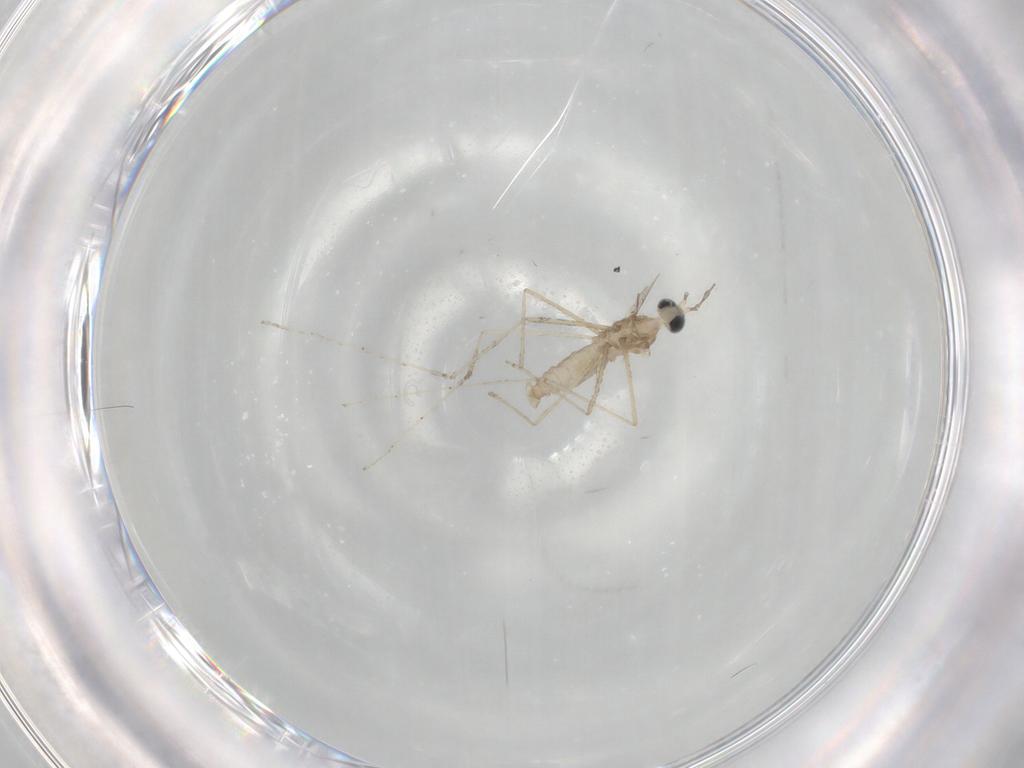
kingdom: Animalia
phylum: Arthropoda
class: Insecta
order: Diptera
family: Cecidomyiidae
